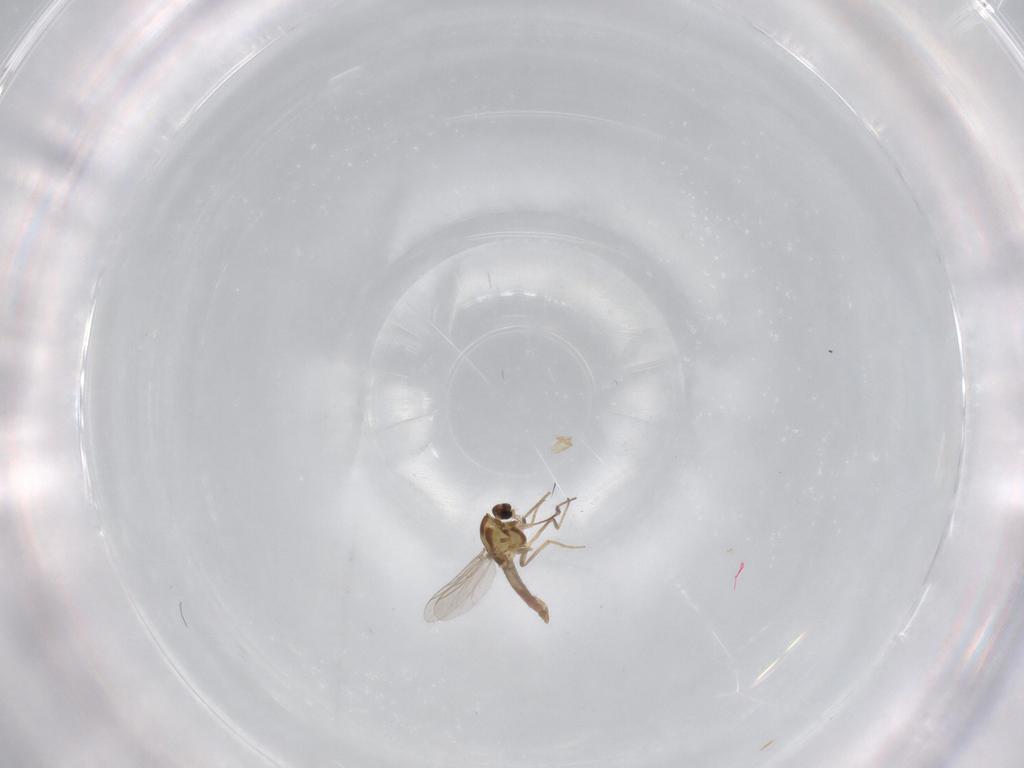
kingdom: Animalia
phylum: Arthropoda
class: Insecta
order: Diptera
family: Chironomidae
